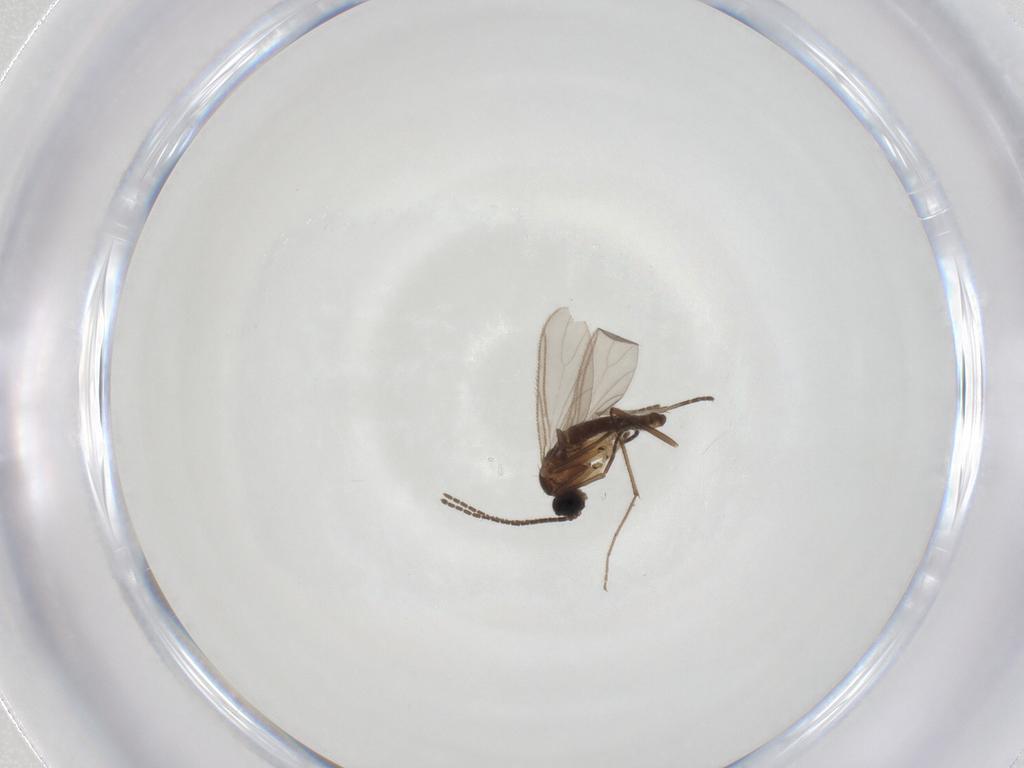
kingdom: Animalia
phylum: Arthropoda
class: Insecta
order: Diptera
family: Sciaridae
